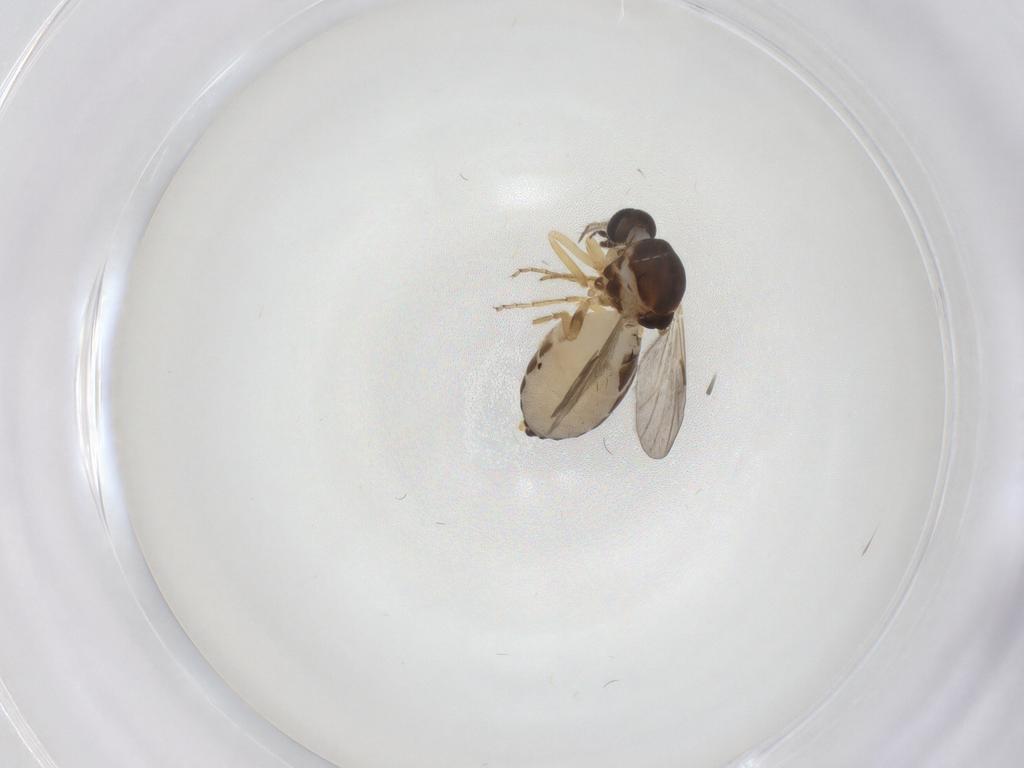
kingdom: Animalia
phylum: Arthropoda
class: Insecta
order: Diptera
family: Ceratopogonidae
